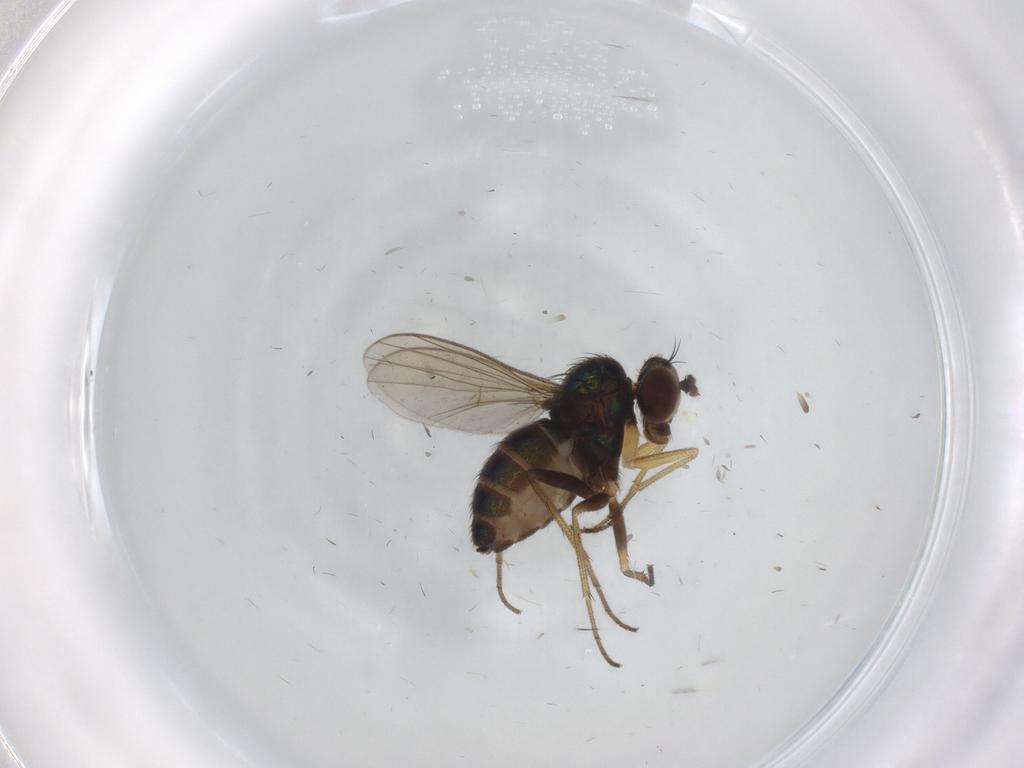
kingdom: Animalia
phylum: Arthropoda
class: Insecta
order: Diptera
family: Dolichopodidae
